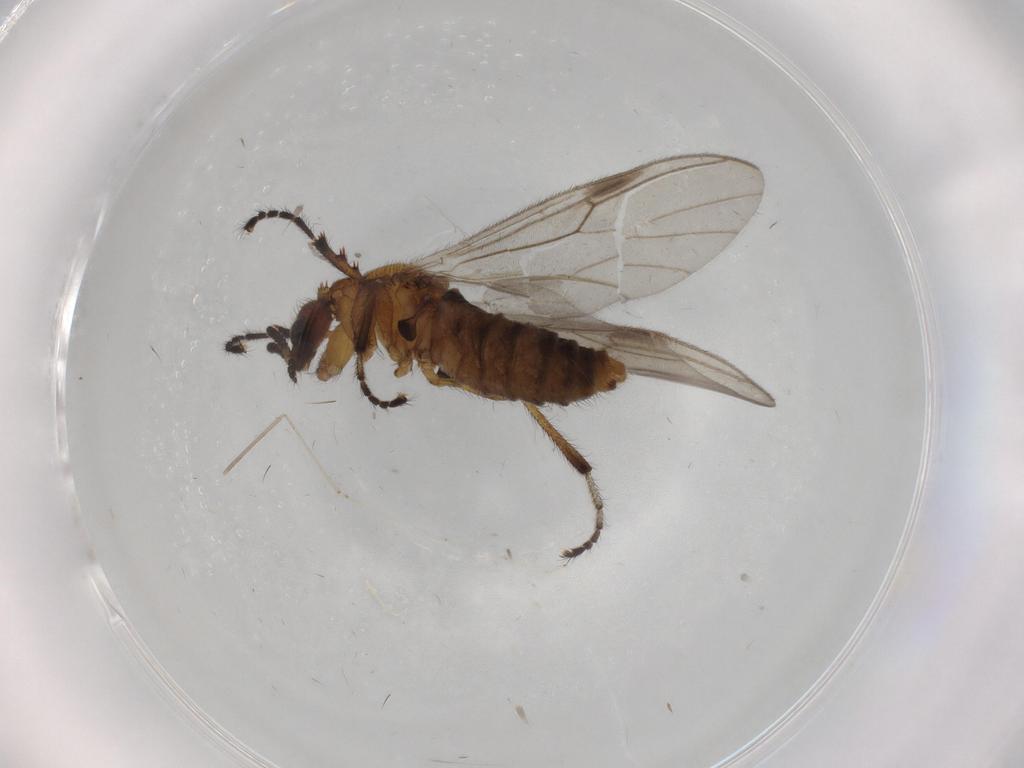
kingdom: Animalia
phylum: Arthropoda
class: Insecta
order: Diptera
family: Bibionidae
